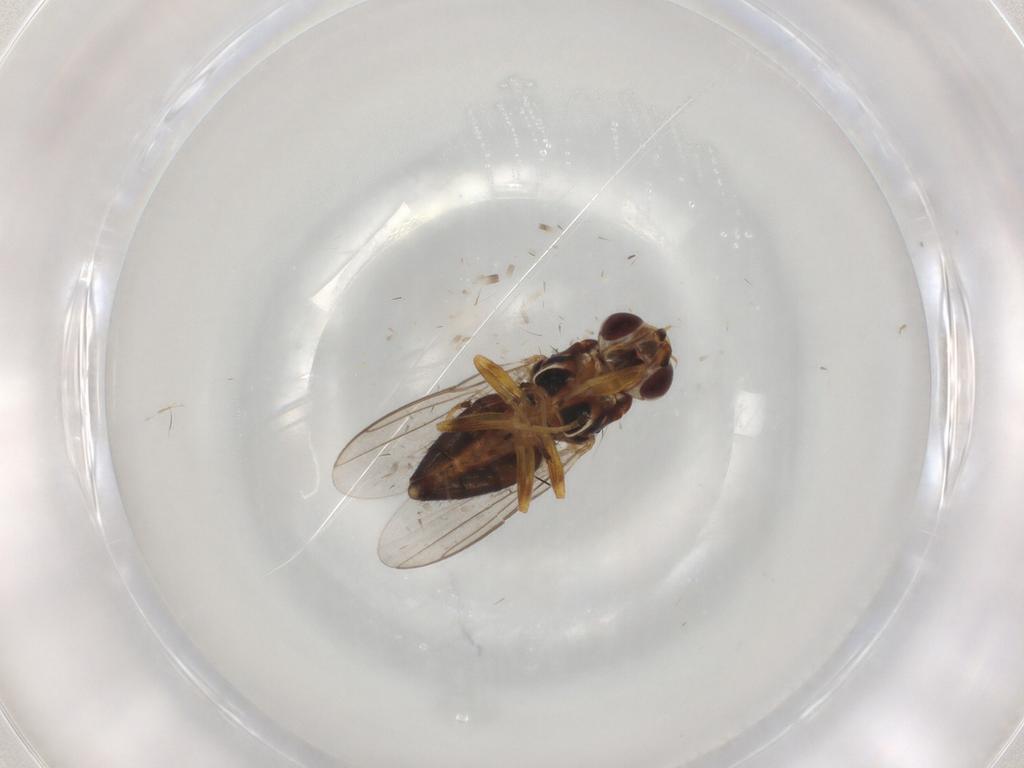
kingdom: Animalia
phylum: Arthropoda
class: Insecta
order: Diptera
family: Chloropidae
